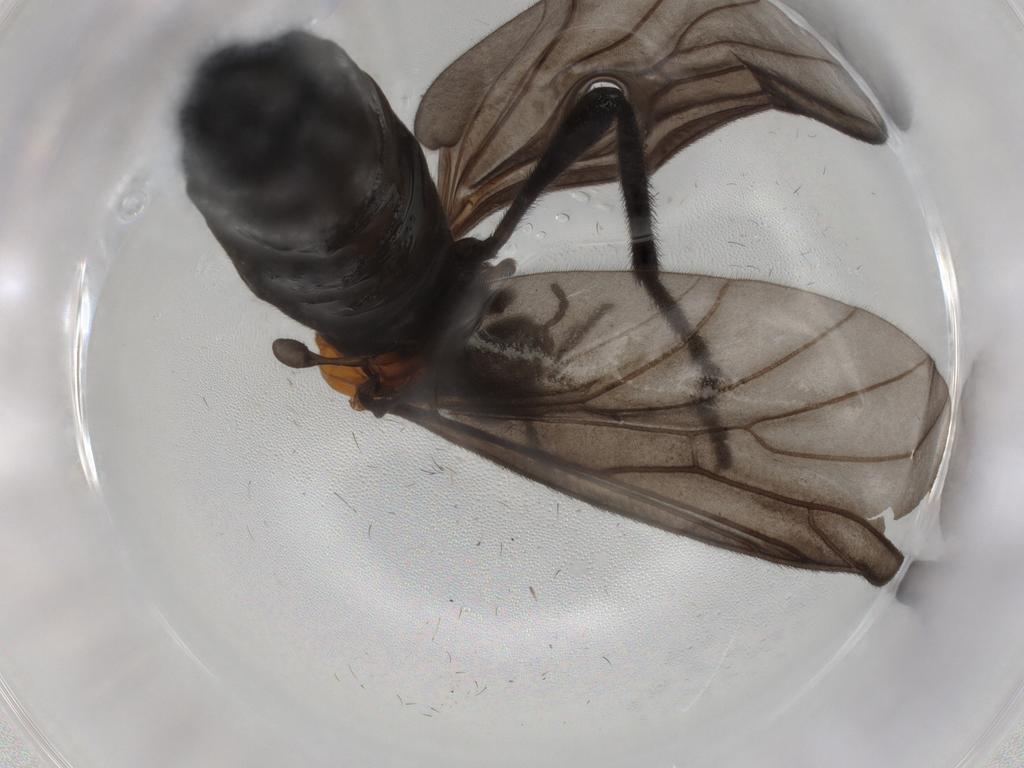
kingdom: Animalia
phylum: Arthropoda
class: Insecta
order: Diptera
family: Bibionidae
